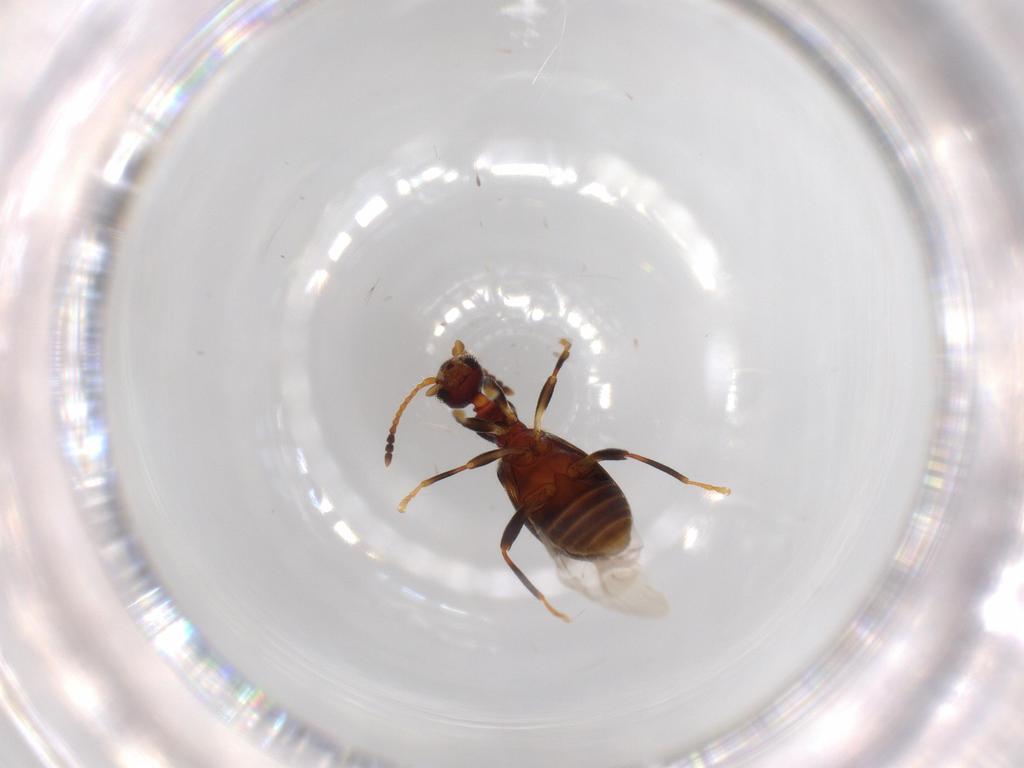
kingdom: Animalia
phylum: Arthropoda
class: Insecta
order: Coleoptera
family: Anthicidae
